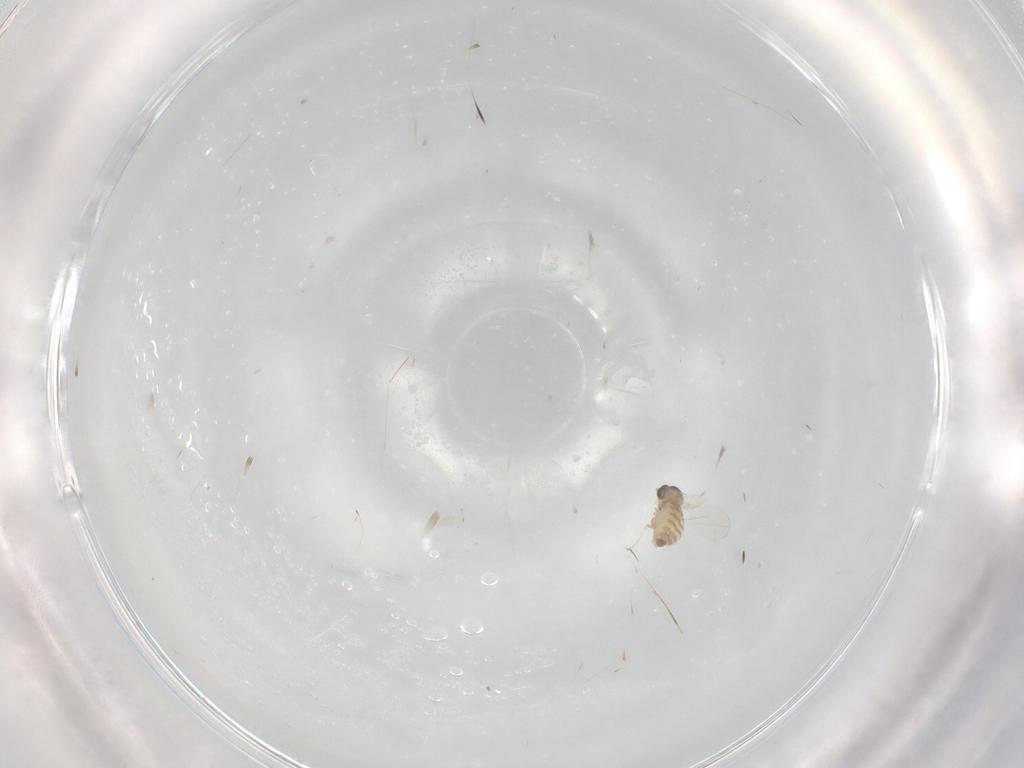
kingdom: Animalia
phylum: Arthropoda
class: Insecta
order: Diptera
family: Cecidomyiidae
